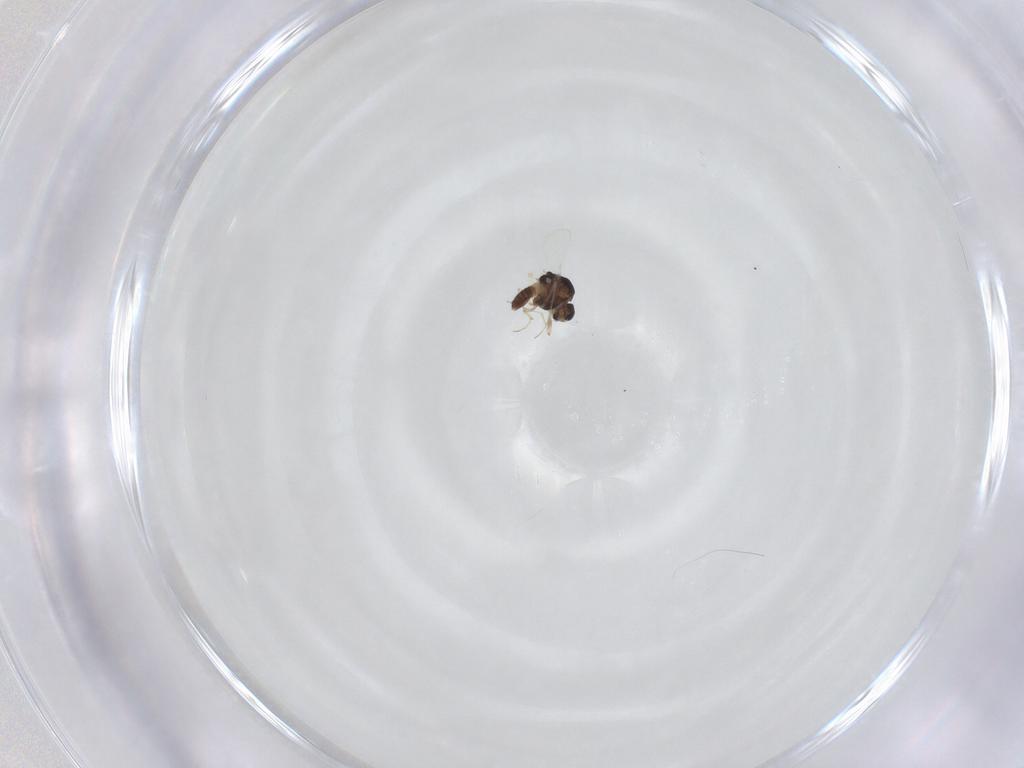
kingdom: Animalia
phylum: Arthropoda
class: Insecta
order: Diptera
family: Chironomidae
